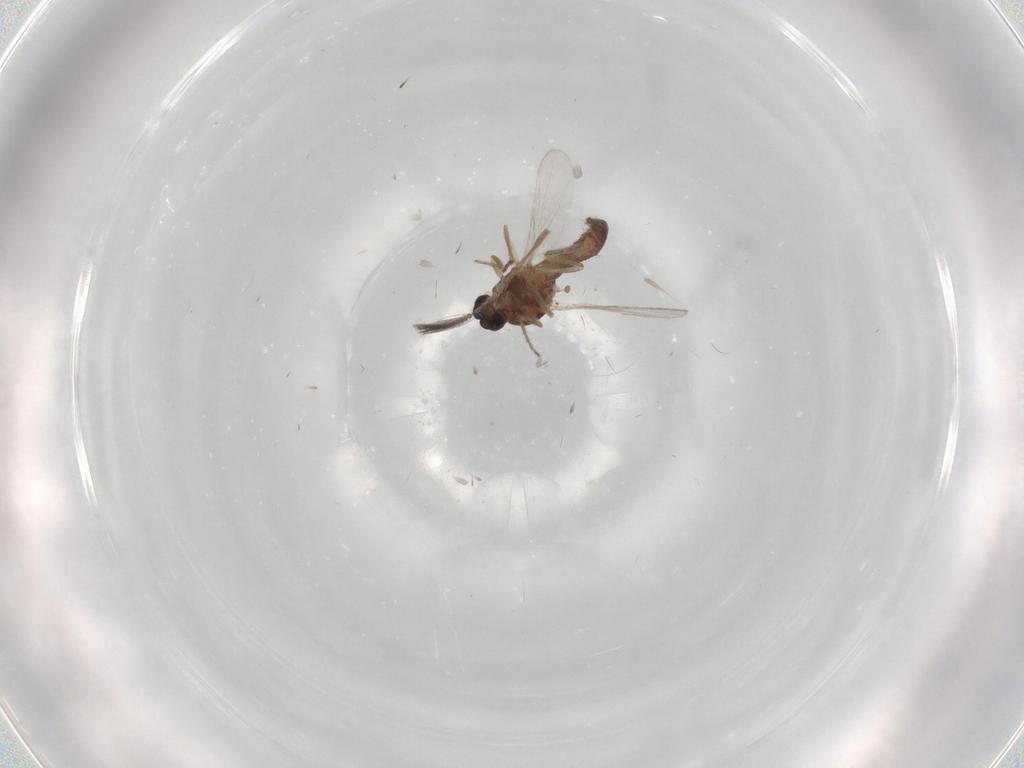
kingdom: Animalia
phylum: Arthropoda
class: Insecta
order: Diptera
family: Ceratopogonidae
